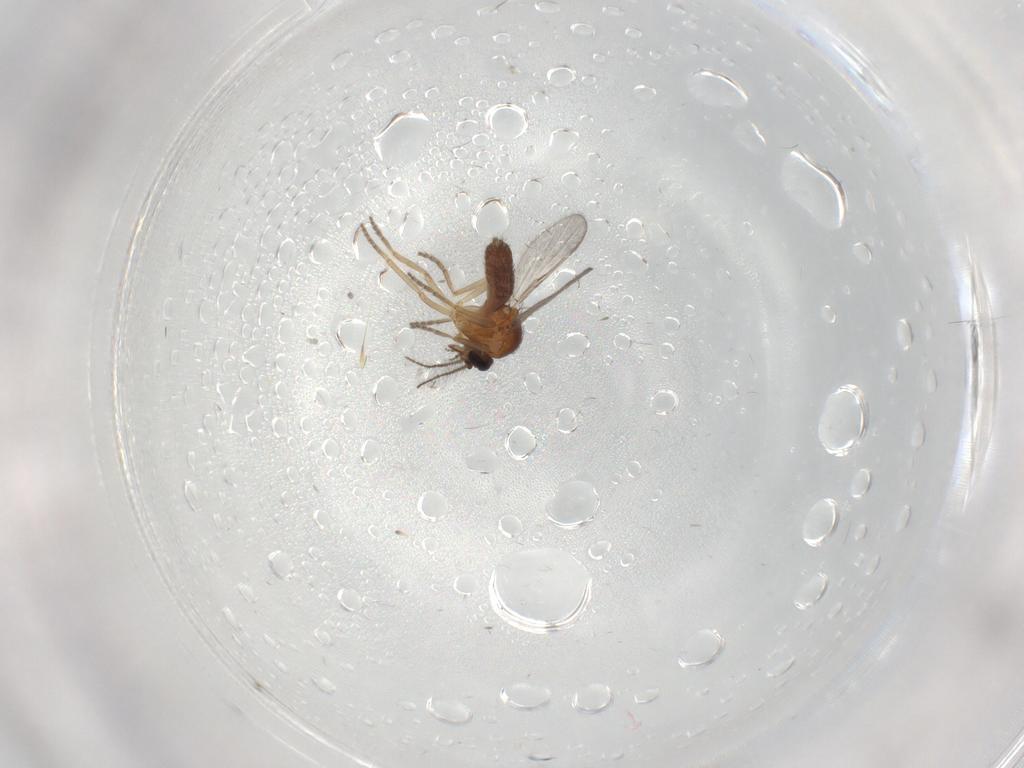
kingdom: Animalia
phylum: Arthropoda
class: Insecta
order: Diptera
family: Ceratopogonidae
